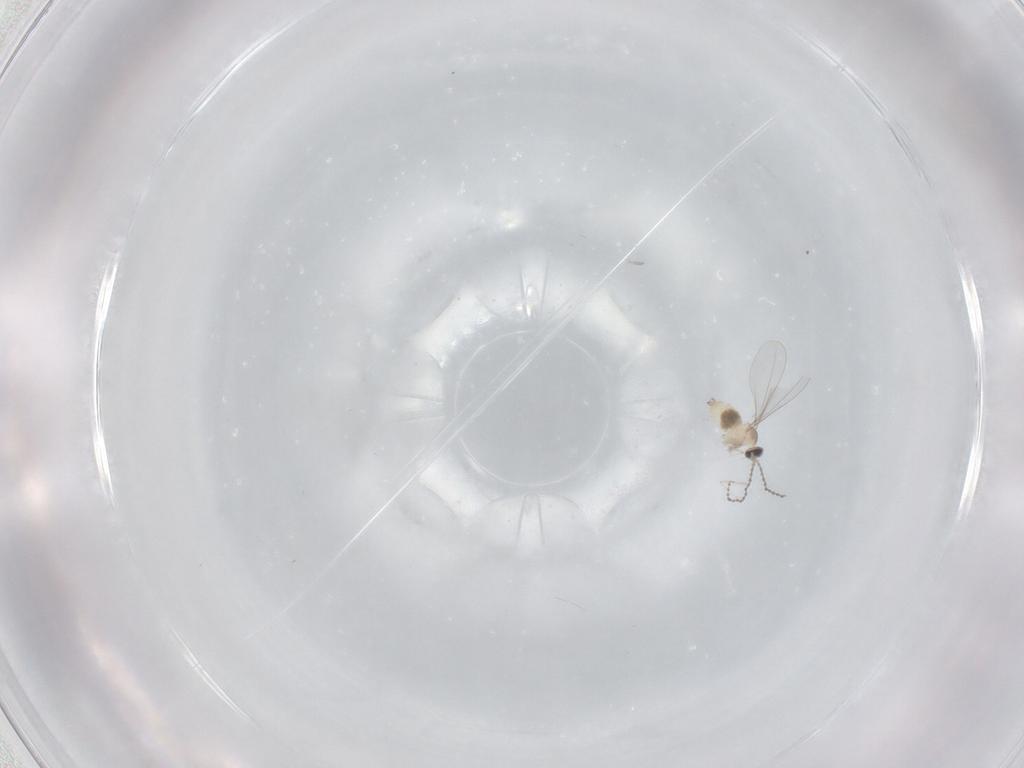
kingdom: Animalia
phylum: Arthropoda
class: Insecta
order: Diptera
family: Cecidomyiidae
